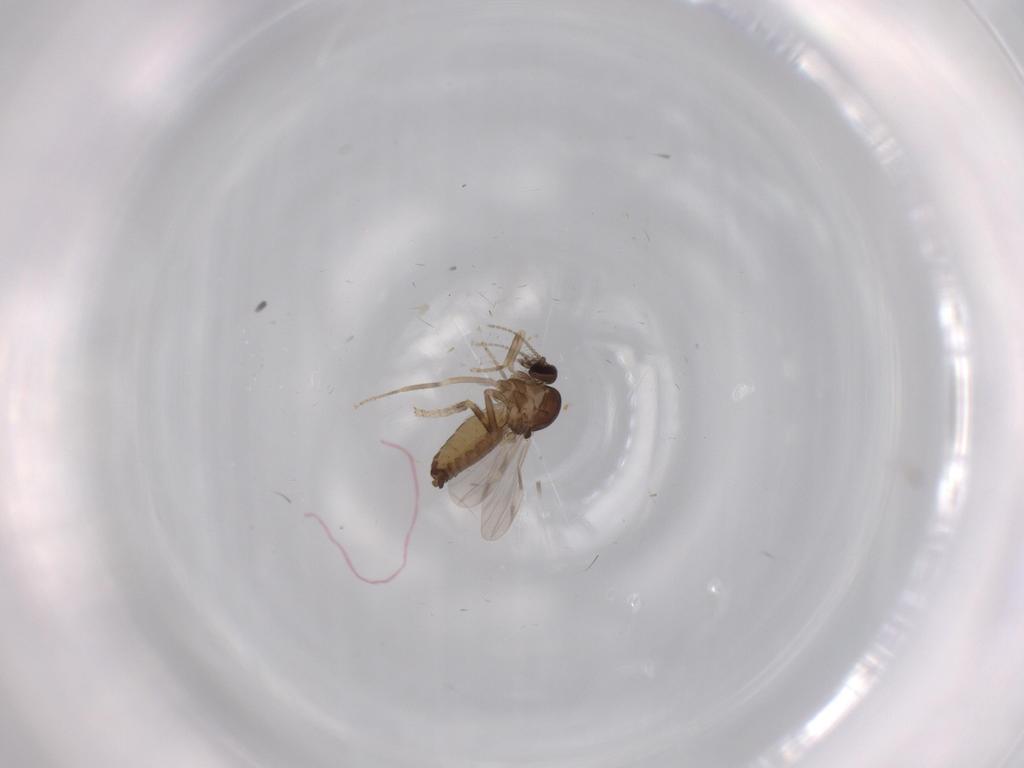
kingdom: Animalia
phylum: Arthropoda
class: Insecta
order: Diptera
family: Ceratopogonidae
